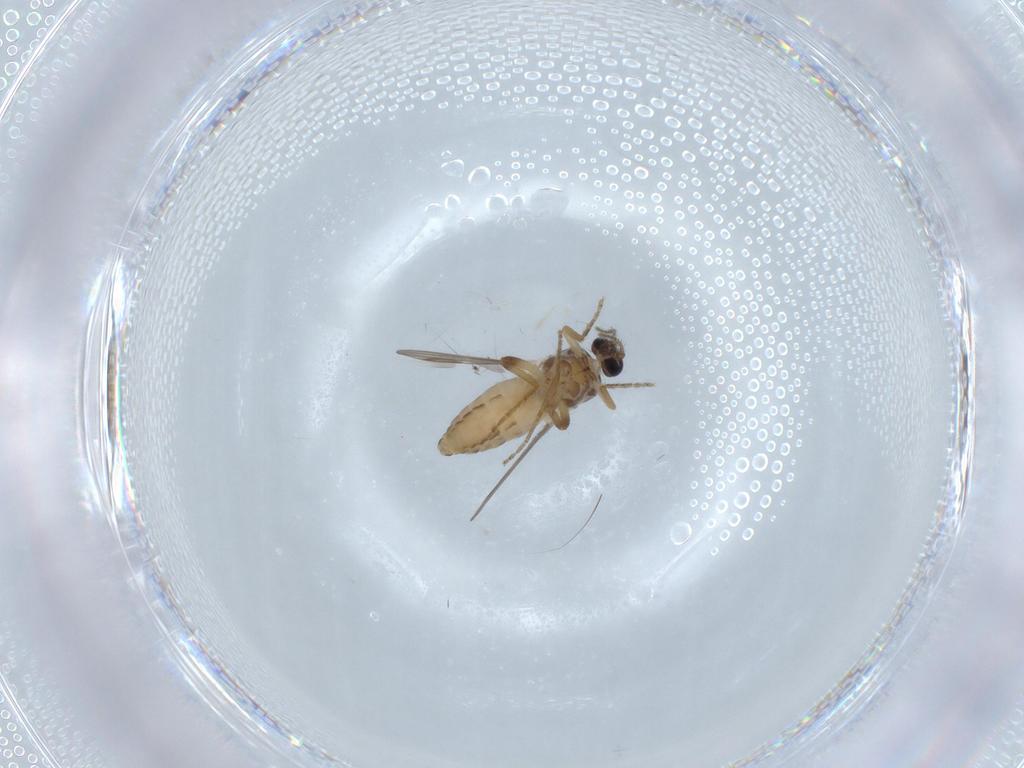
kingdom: Animalia
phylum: Arthropoda
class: Insecta
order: Diptera
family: Ceratopogonidae
